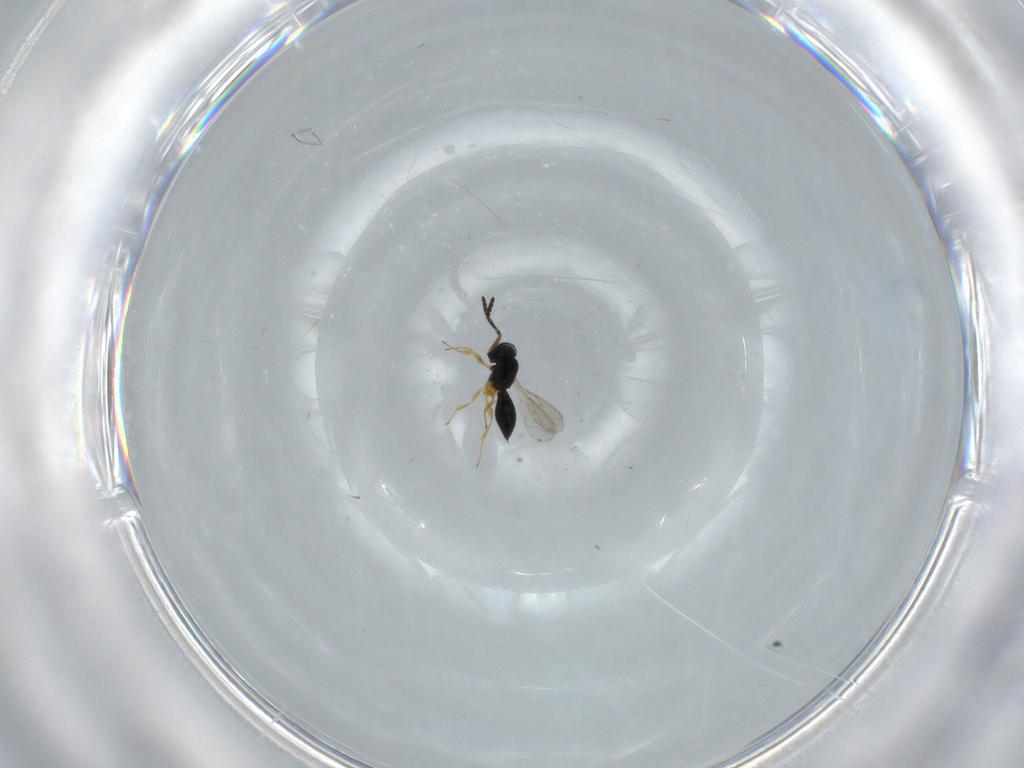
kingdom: Animalia
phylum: Arthropoda
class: Insecta
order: Hymenoptera
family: Scelionidae
